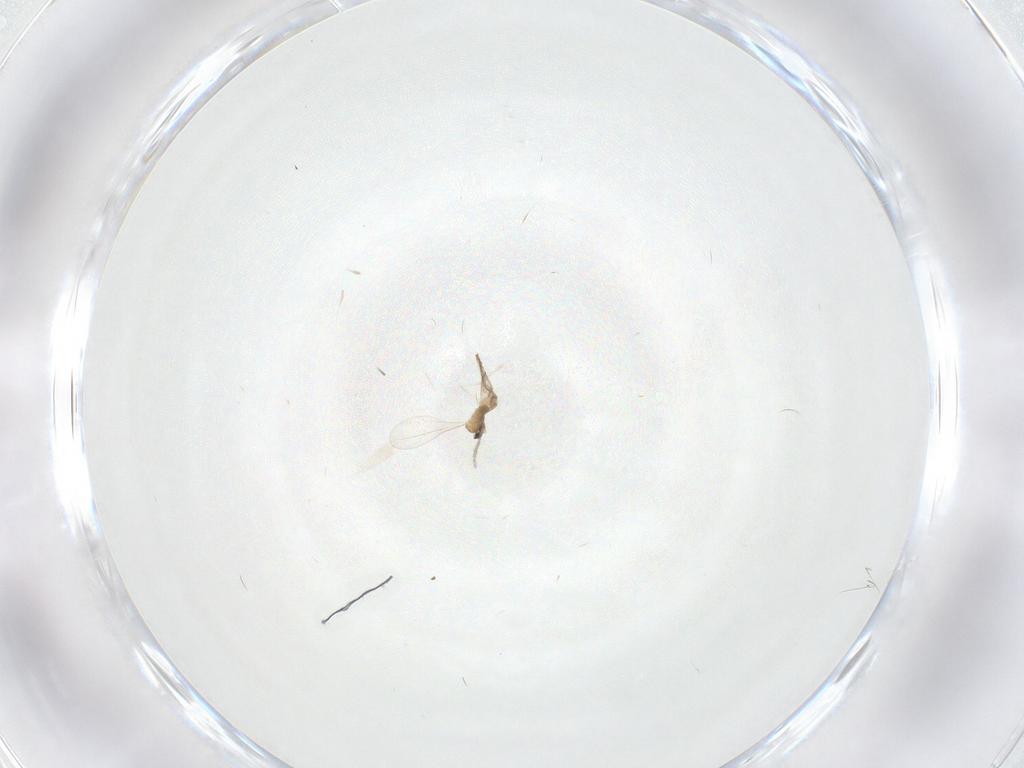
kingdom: Animalia
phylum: Arthropoda
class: Insecta
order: Diptera
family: Cecidomyiidae
